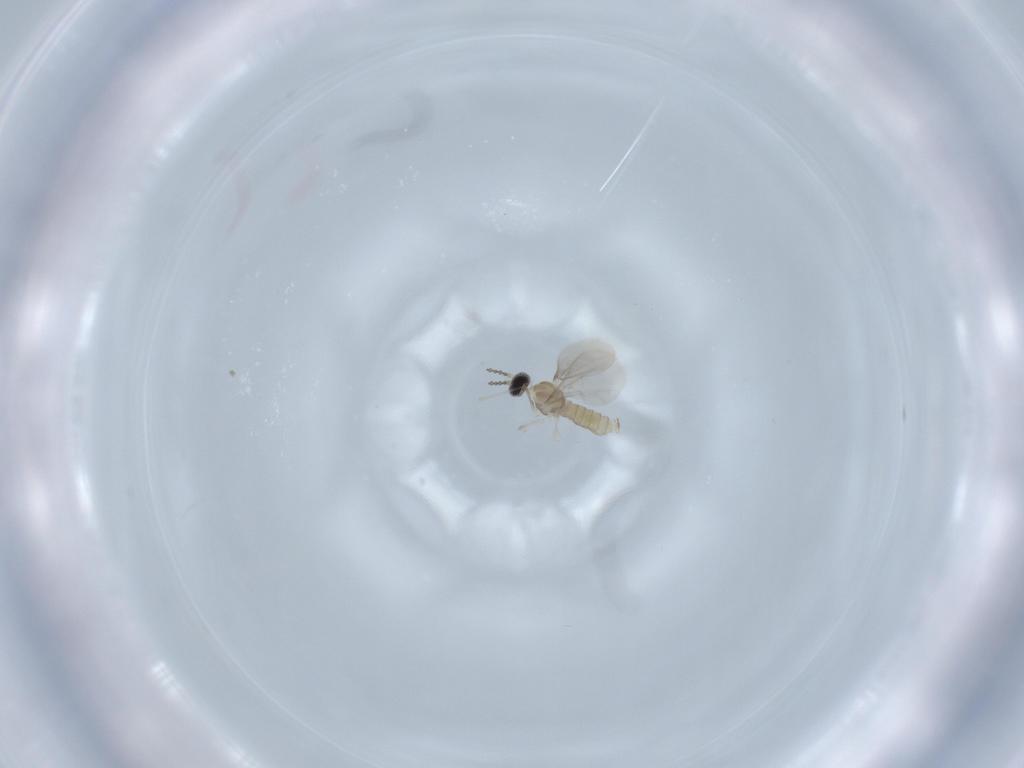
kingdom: Animalia
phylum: Arthropoda
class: Insecta
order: Diptera
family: Cecidomyiidae
